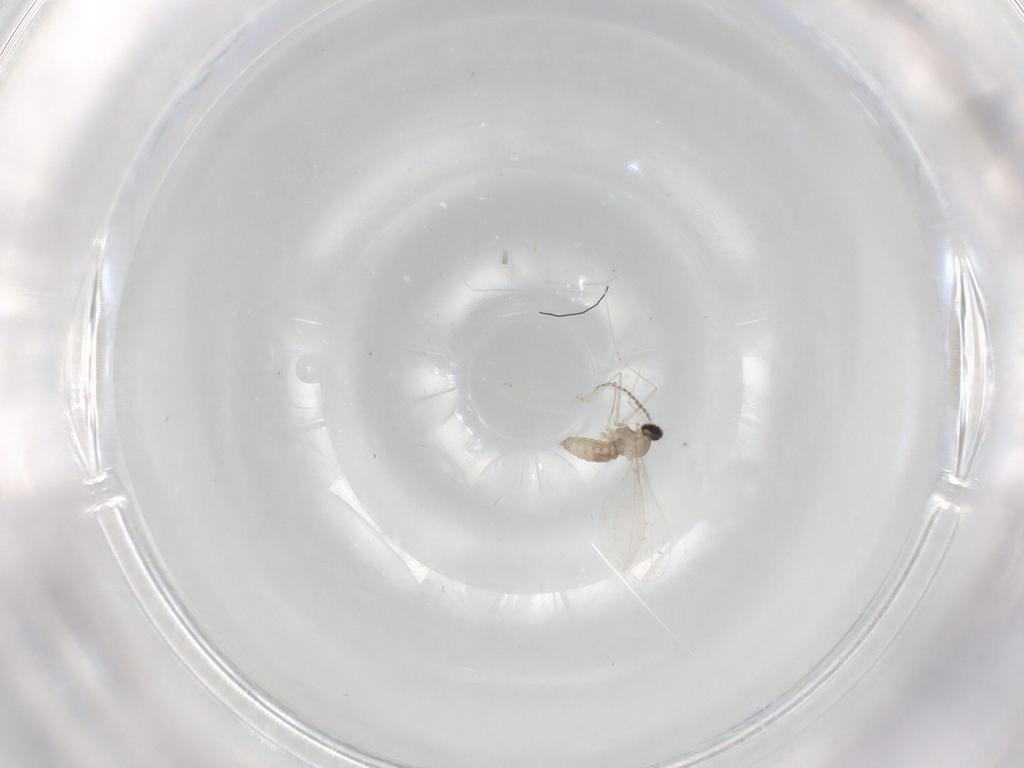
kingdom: Animalia
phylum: Arthropoda
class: Insecta
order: Diptera
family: Cecidomyiidae
